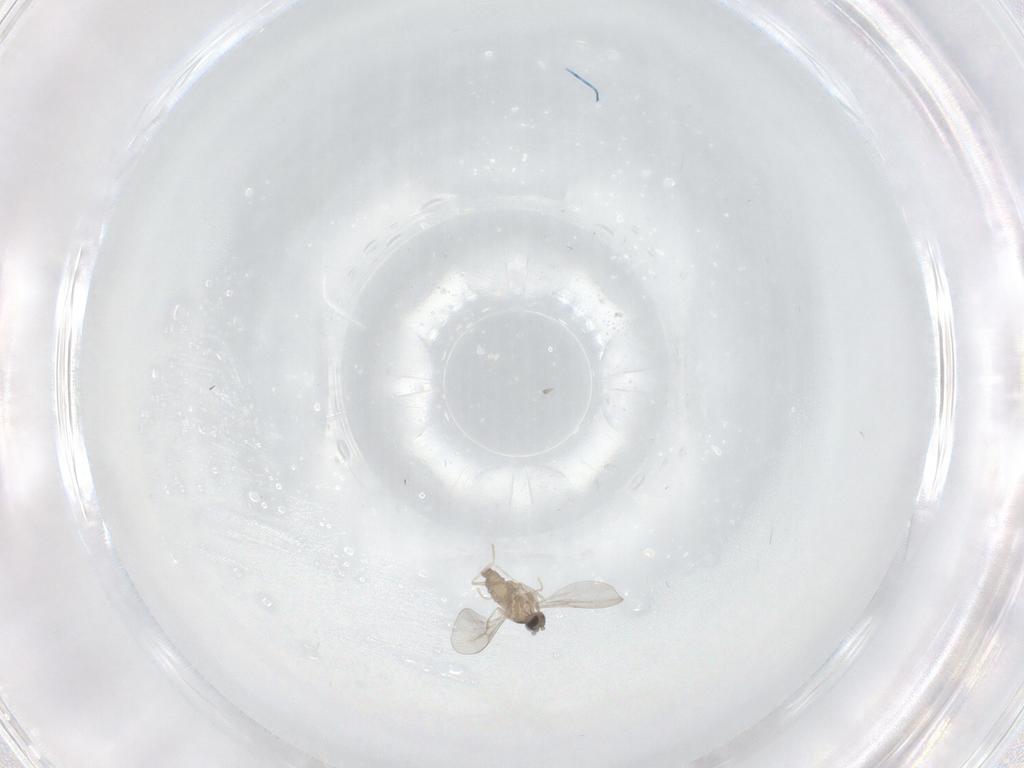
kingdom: Animalia
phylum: Arthropoda
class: Insecta
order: Diptera
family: Cecidomyiidae
